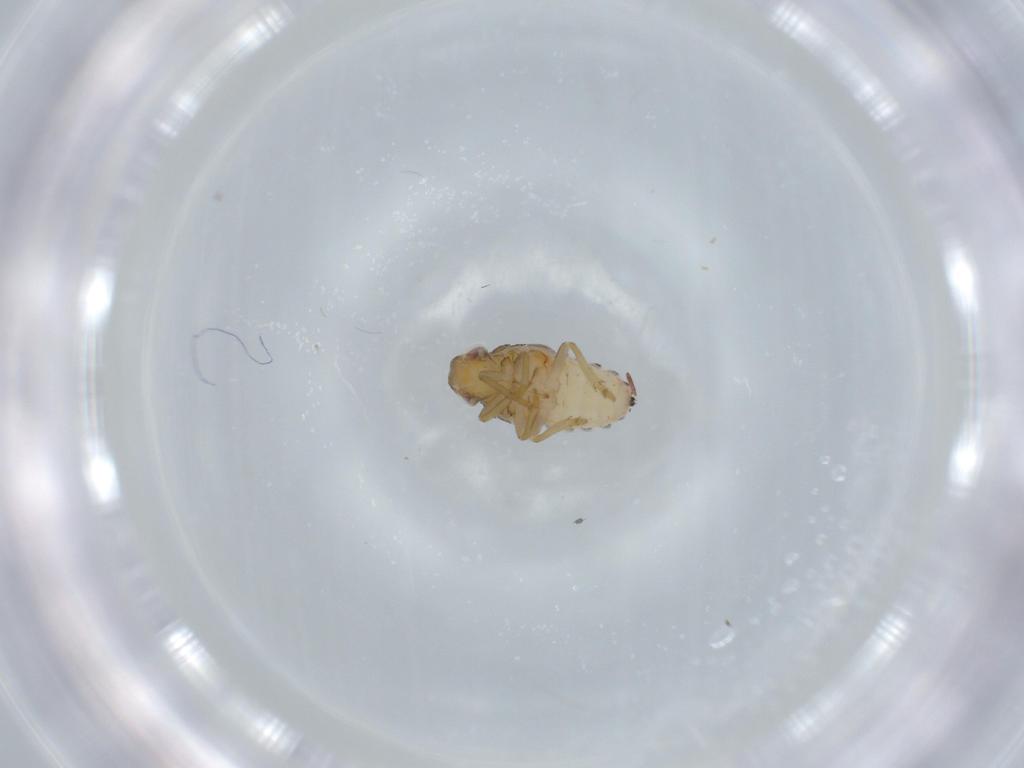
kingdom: Animalia
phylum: Arthropoda
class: Insecta
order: Hemiptera
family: Issidae
